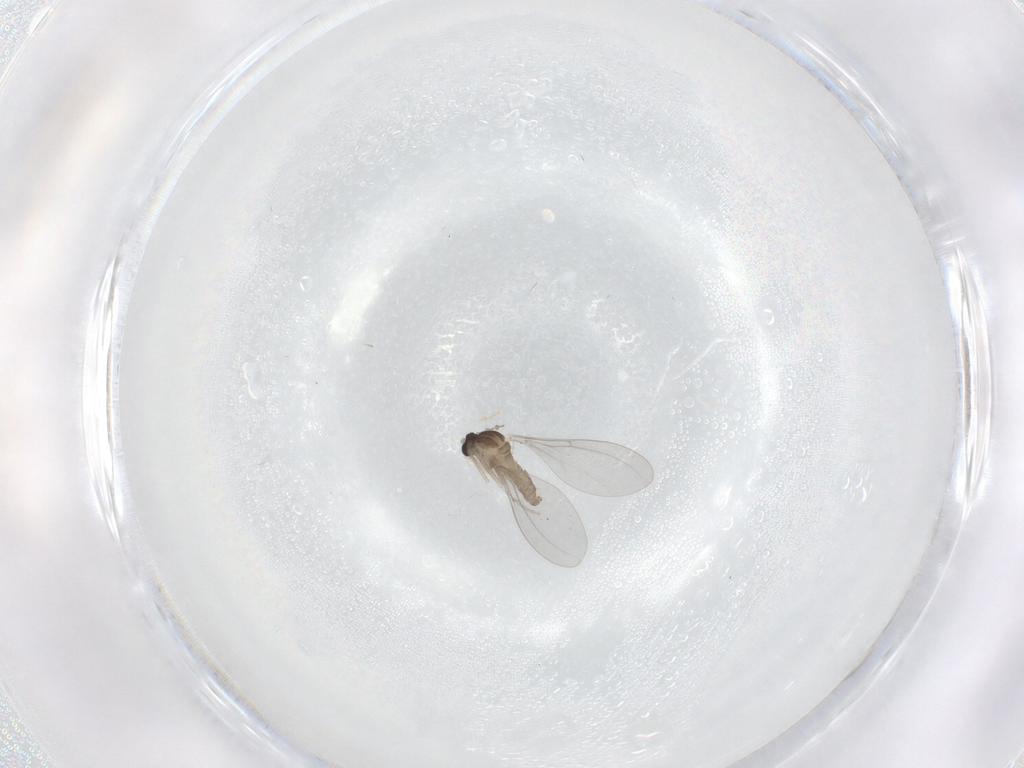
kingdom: Animalia
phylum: Arthropoda
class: Insecta
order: Diptera
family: Cecidomyiidae
